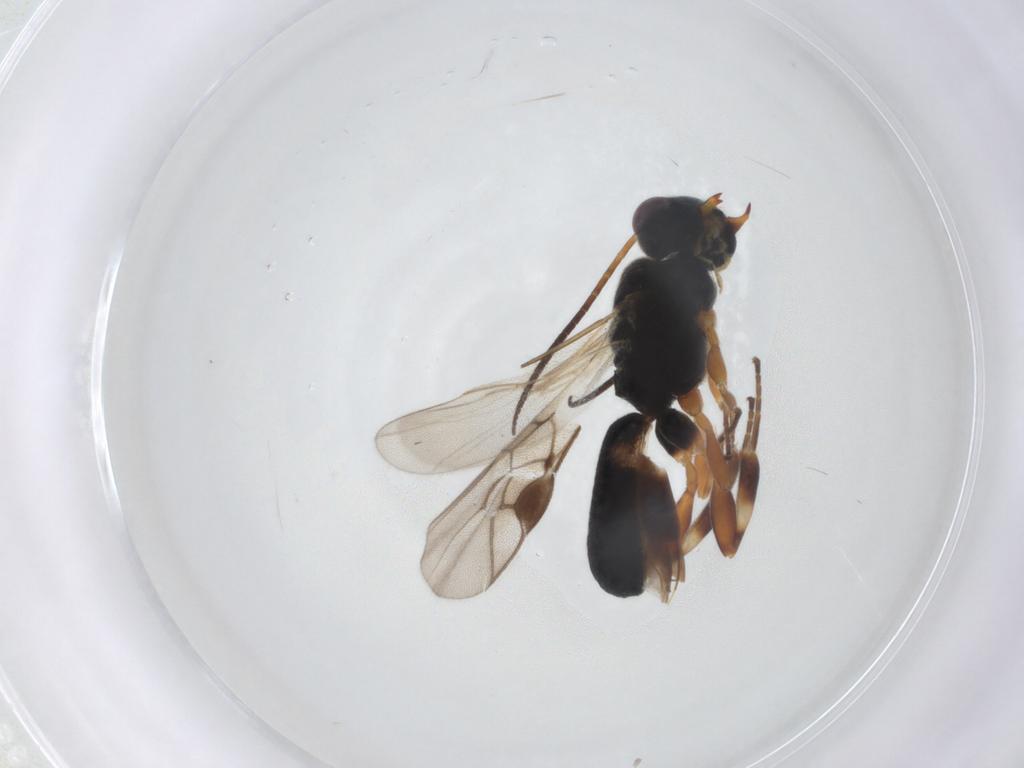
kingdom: Animalia
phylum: Arthropoda
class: Insecta
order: Hymenoptera
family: Braconidae
